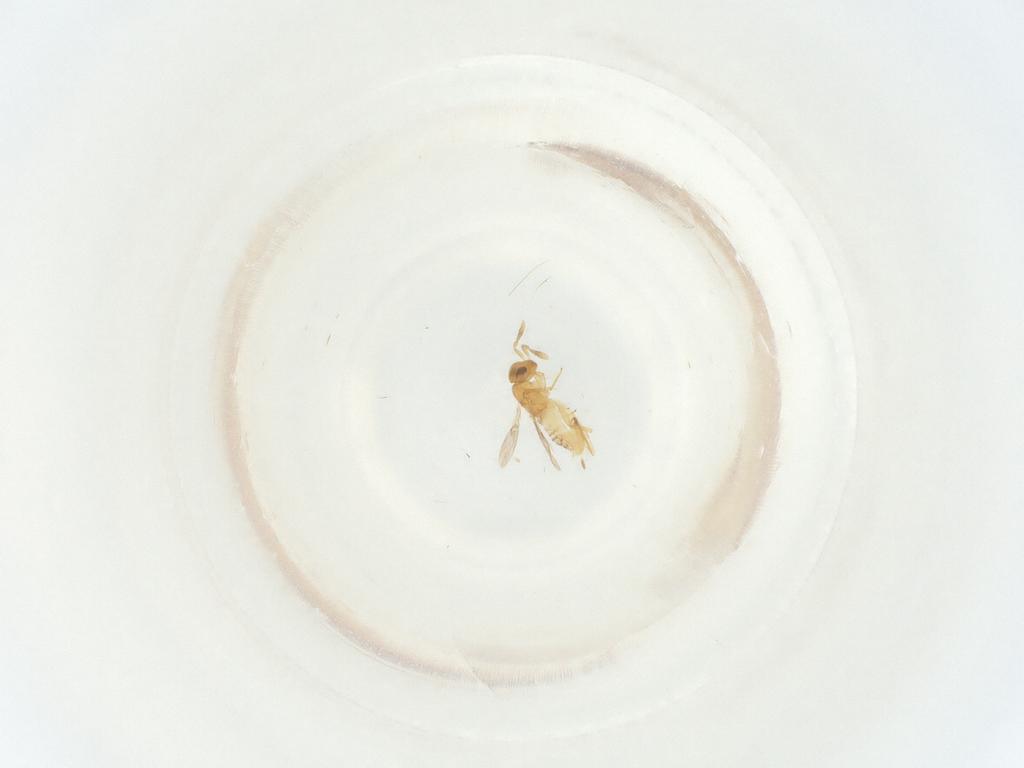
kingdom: Animalia
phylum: Arthropoda
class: Insecta
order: Hymenoptera
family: Encyrtidae
